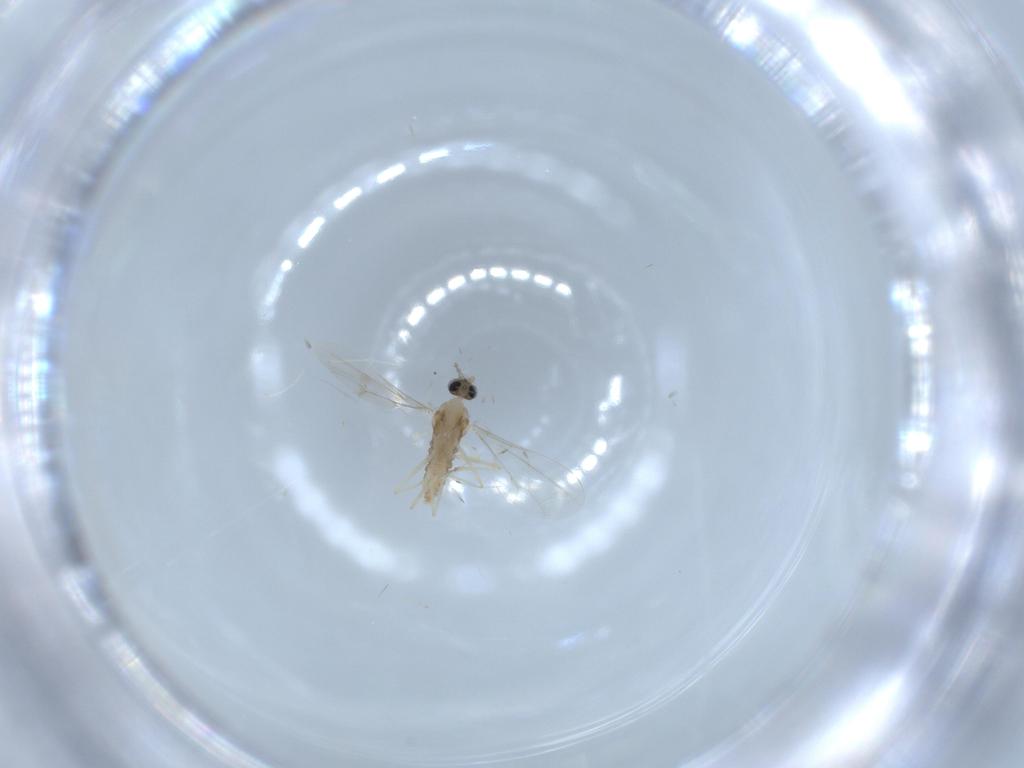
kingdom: Animalia
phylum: Arthropoda
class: Insecta
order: Diptera
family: Cecidomyiidae
